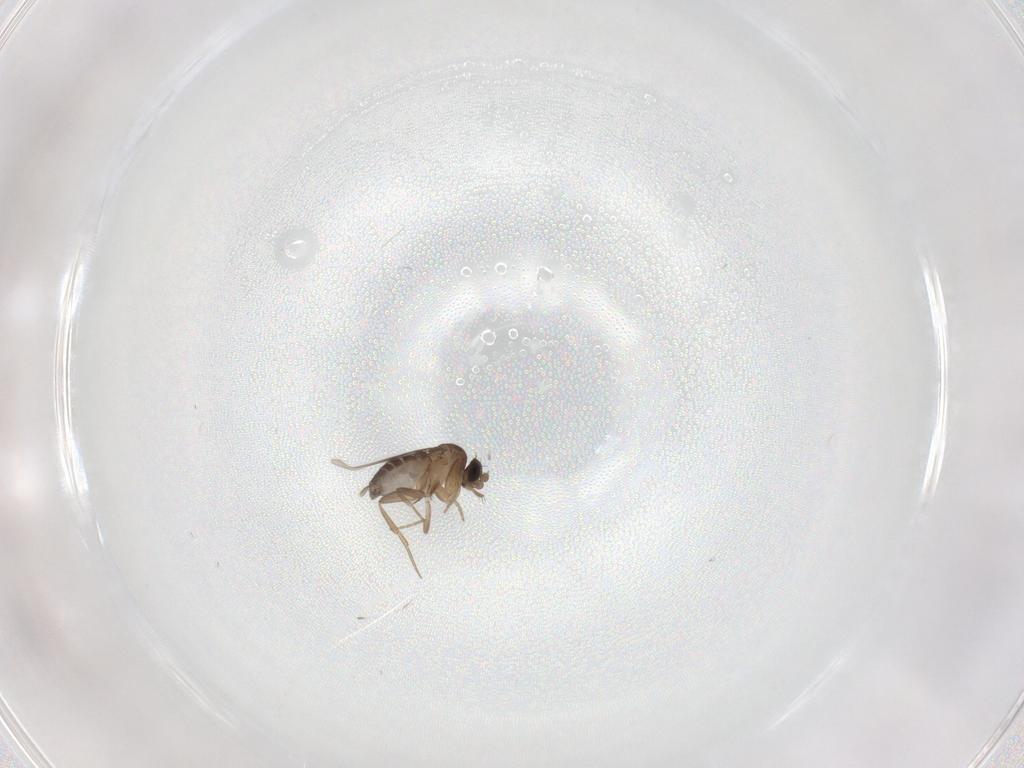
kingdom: Animalia
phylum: Arthropoda
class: Insecta
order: Diptera
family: Phoridae
